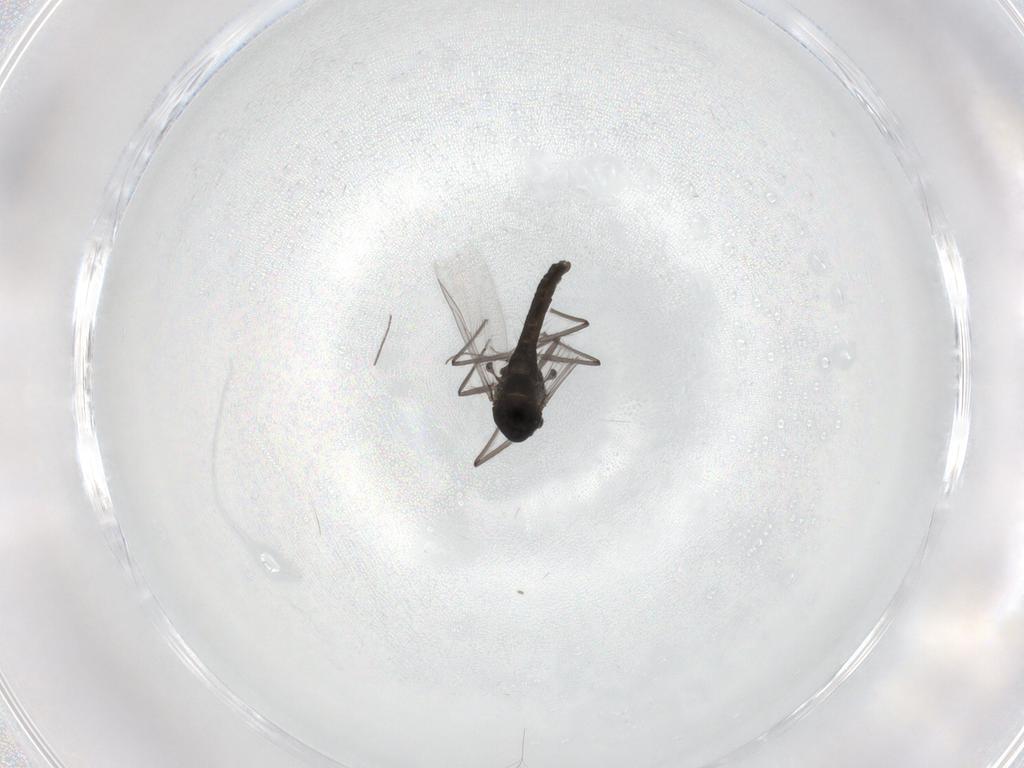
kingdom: Animalia
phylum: Arthropoda
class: Insecta
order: Diptera
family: Chironomidae
